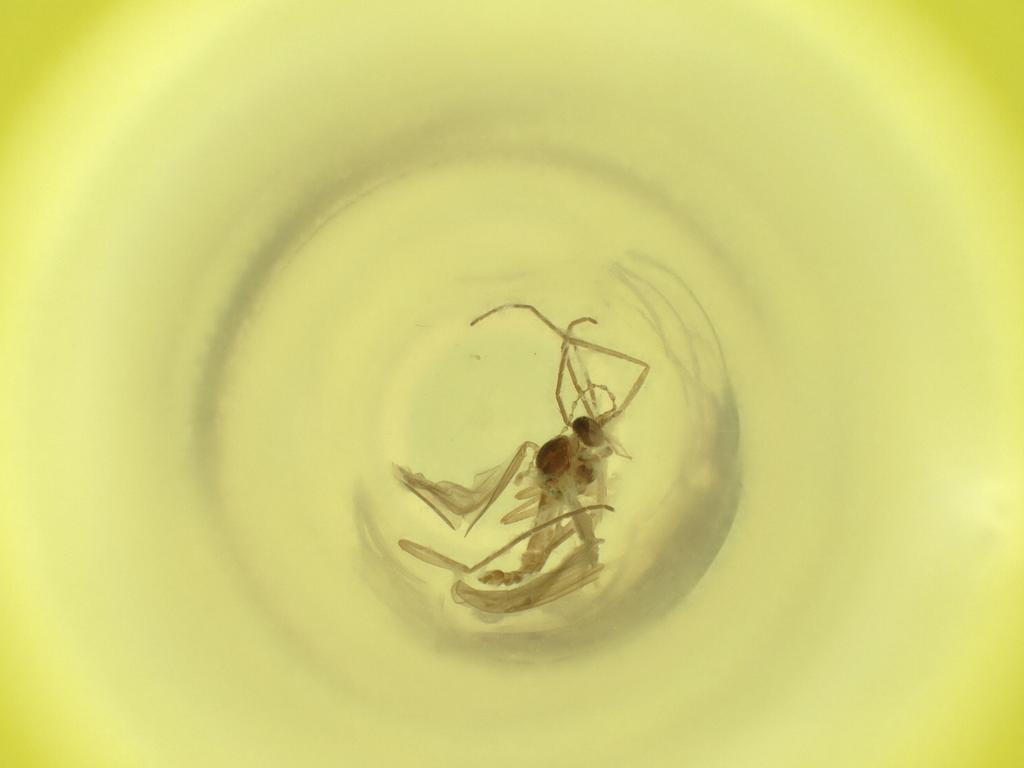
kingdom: Animalia
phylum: Arthropoda
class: Insecta
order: Diptera
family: Cecidomyiidae
